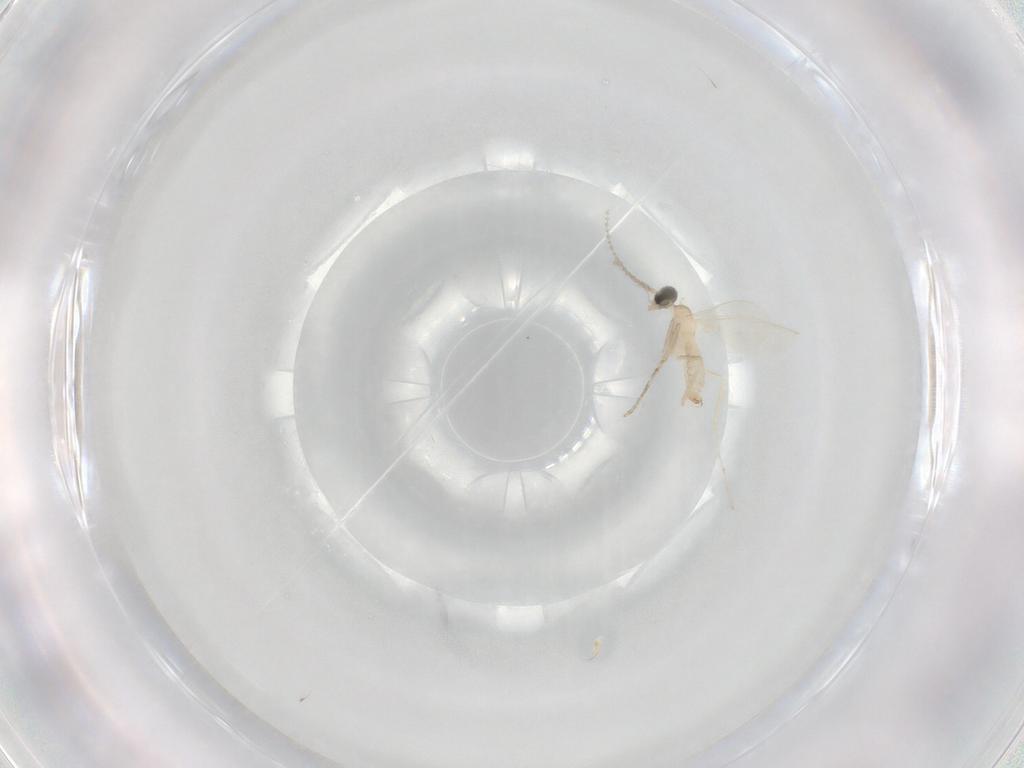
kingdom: Animalia
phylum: Arthropoda
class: Insecta
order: Diptera
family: Cecidomyiidae
